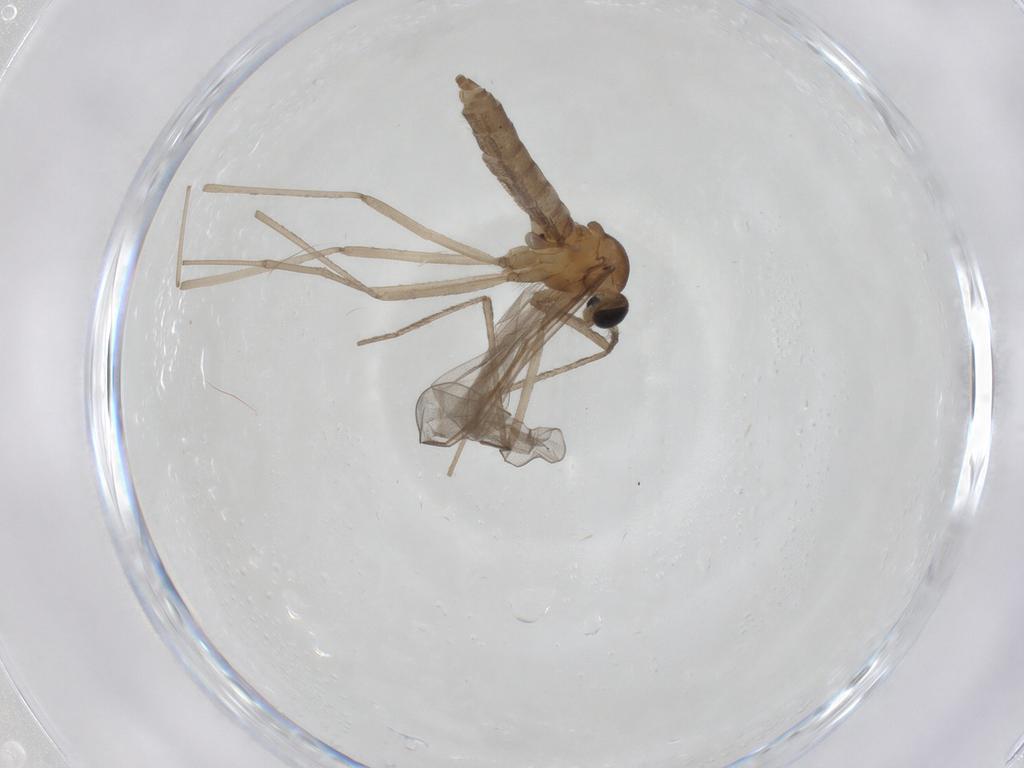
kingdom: Animalia
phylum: Arthropoda
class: Insecta
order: Diptera
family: Cecidomyiidae
